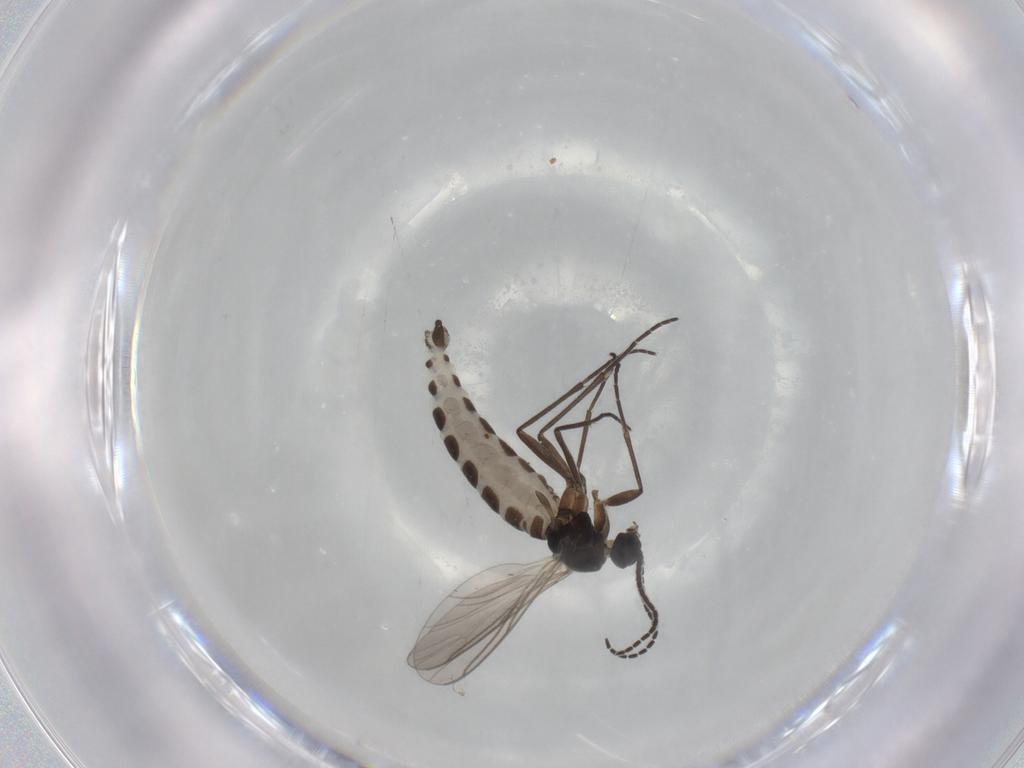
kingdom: Animalia
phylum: Arthropoda
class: Insecta
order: Diptera
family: Sciaridae
